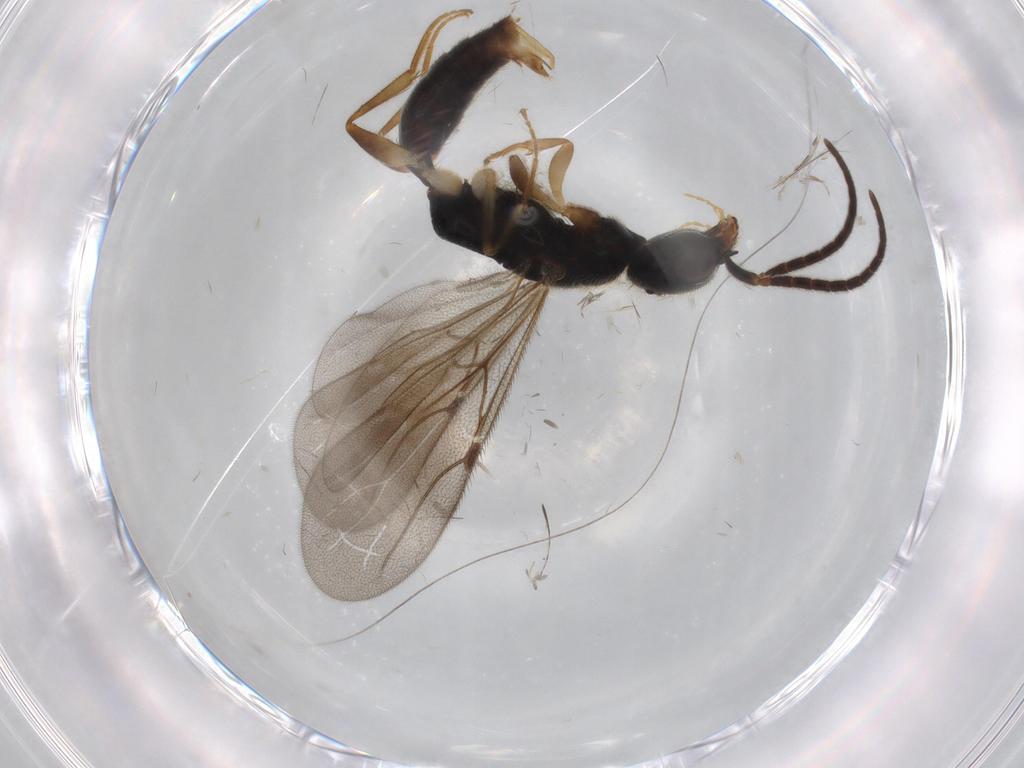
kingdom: Animalia
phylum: Arthropoda
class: Insecta
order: Hymenoptera
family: Bethylidae
